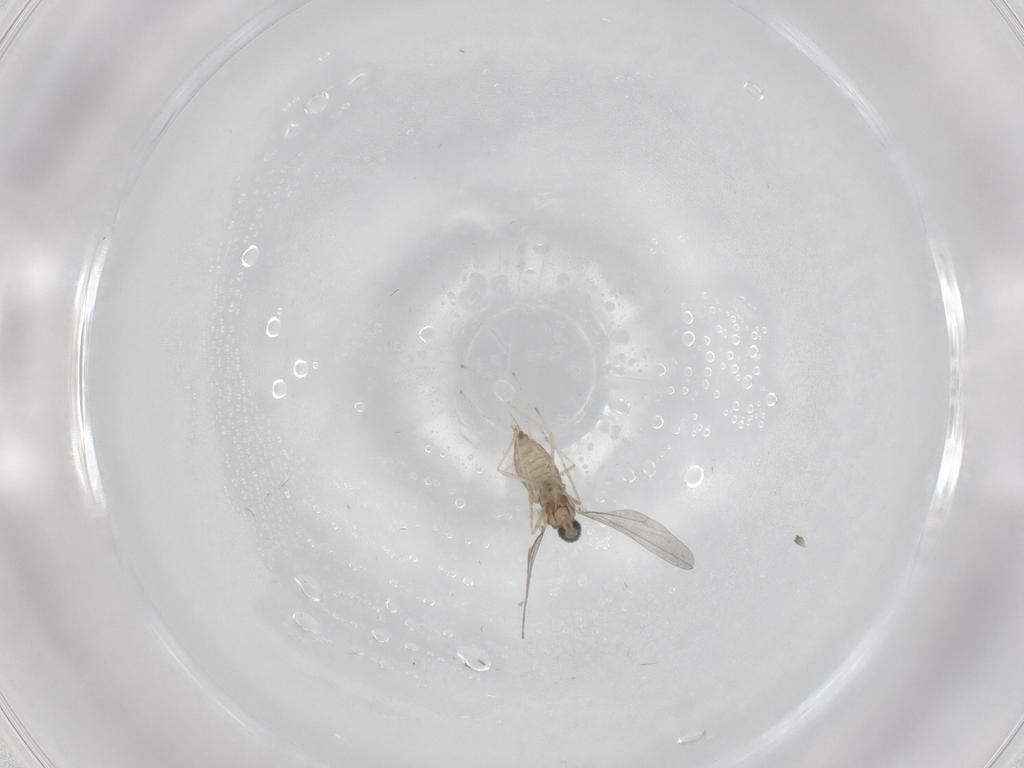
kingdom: Animalia
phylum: Arthropoda
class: Insecta
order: Diptera
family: Cecidomyiidae
